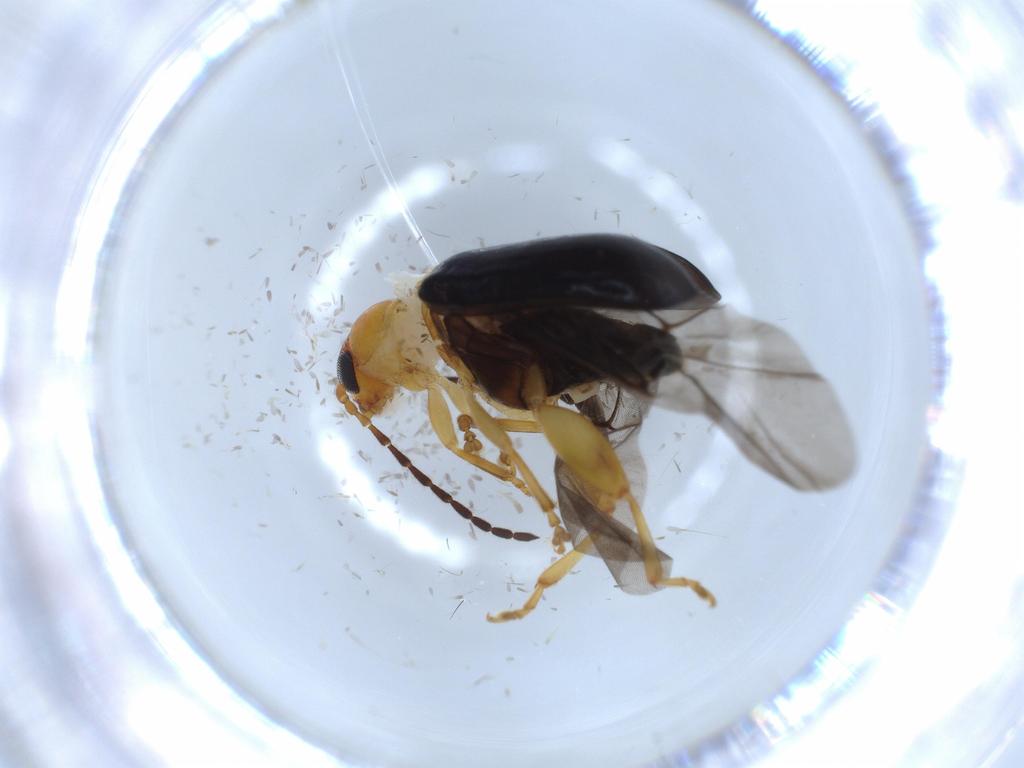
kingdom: Animalia
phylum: Arthropoda
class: Insecta
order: Coleoptera
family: Chrysomelidae
